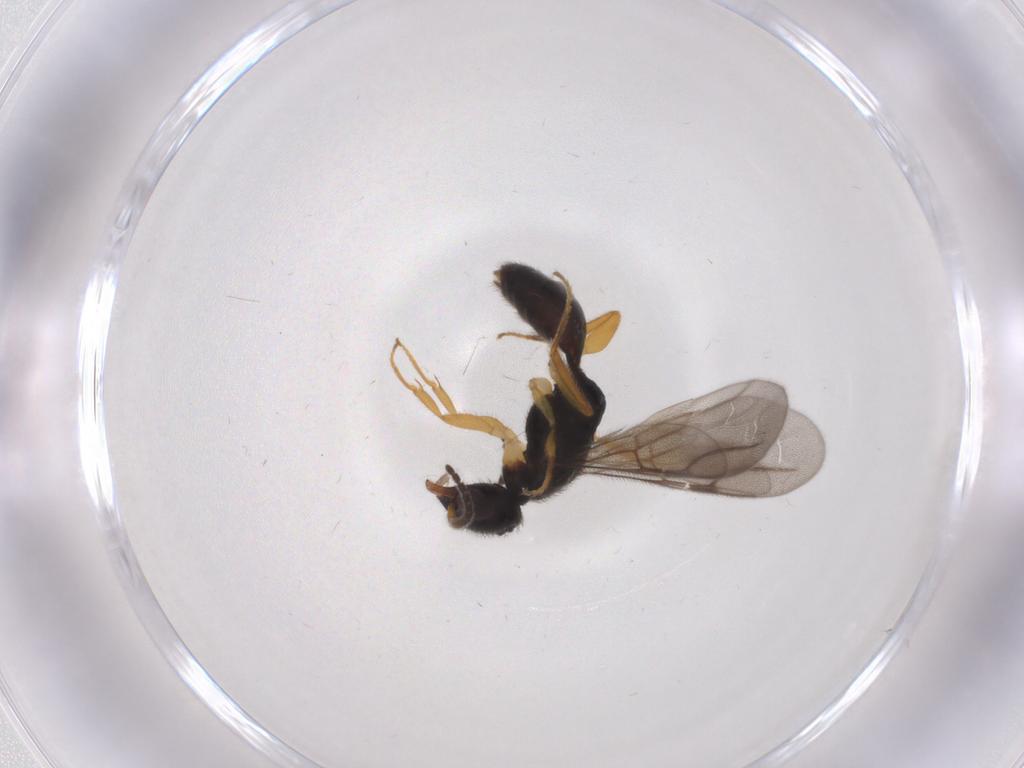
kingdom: Animalia
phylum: Arthropoda
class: Insecta
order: Hymenoptera
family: Bethylidae
